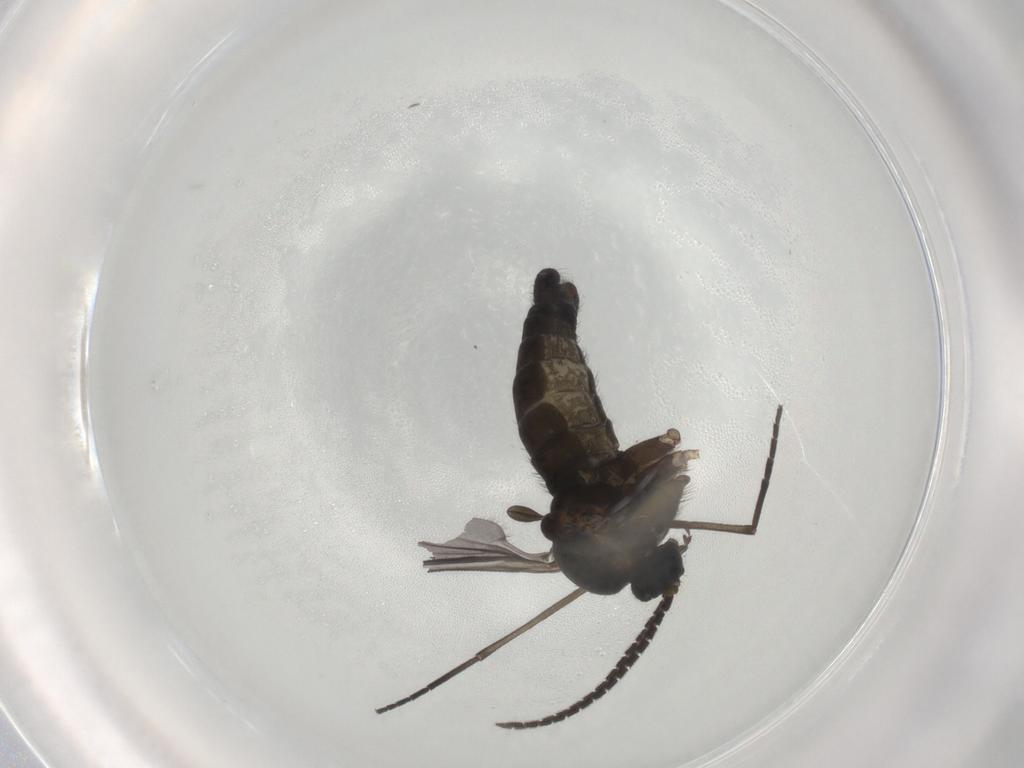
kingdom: Animalia
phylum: Arthropoda
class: Insecta
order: Diptera
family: Sciaridae
